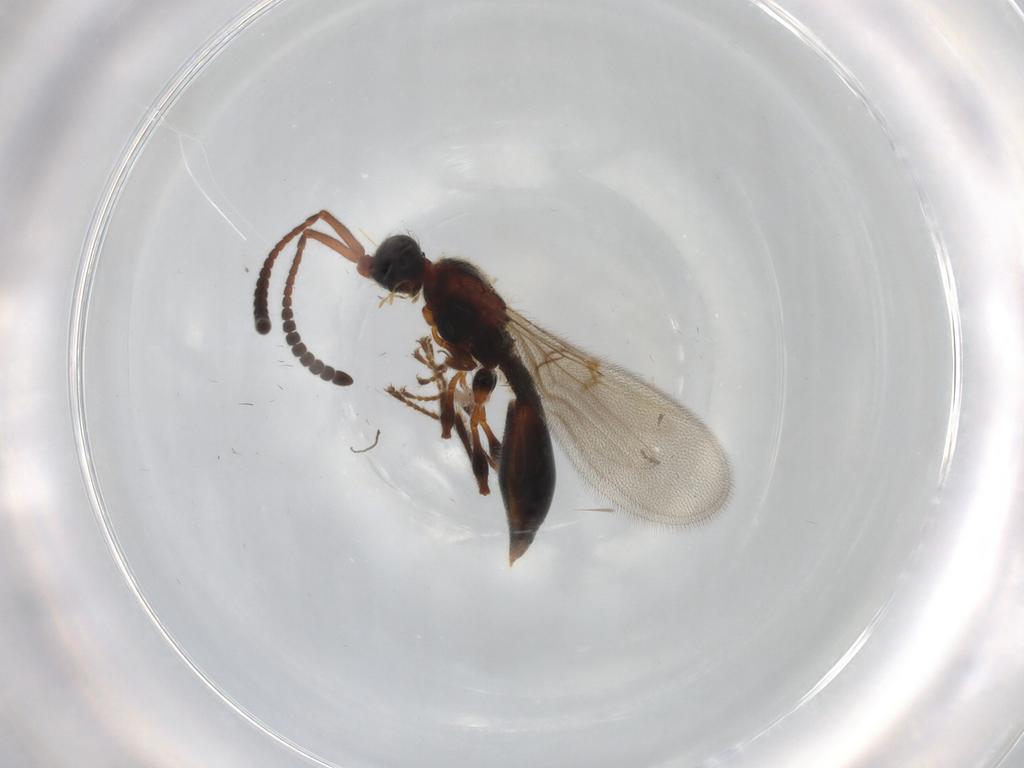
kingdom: Animalia
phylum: Arthropoda
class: Insecta
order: Hymenoptera
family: Diapriidae
